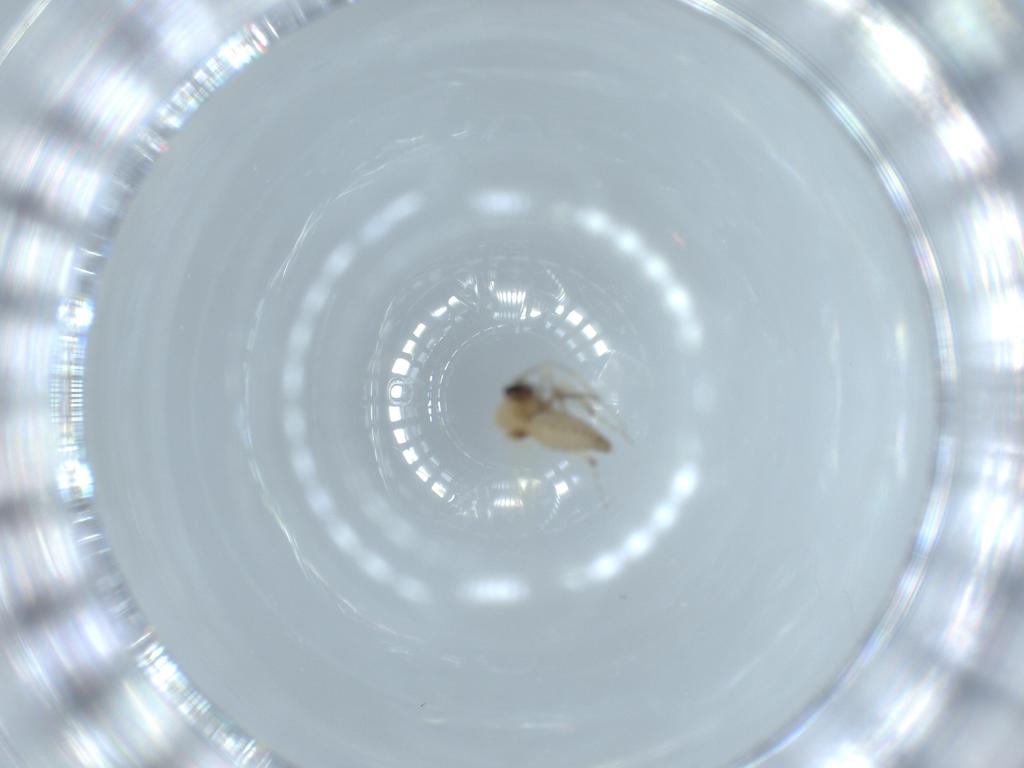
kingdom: Animalia
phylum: Arthropoda
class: Insecta
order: Diptera
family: Ceratopogonidae
